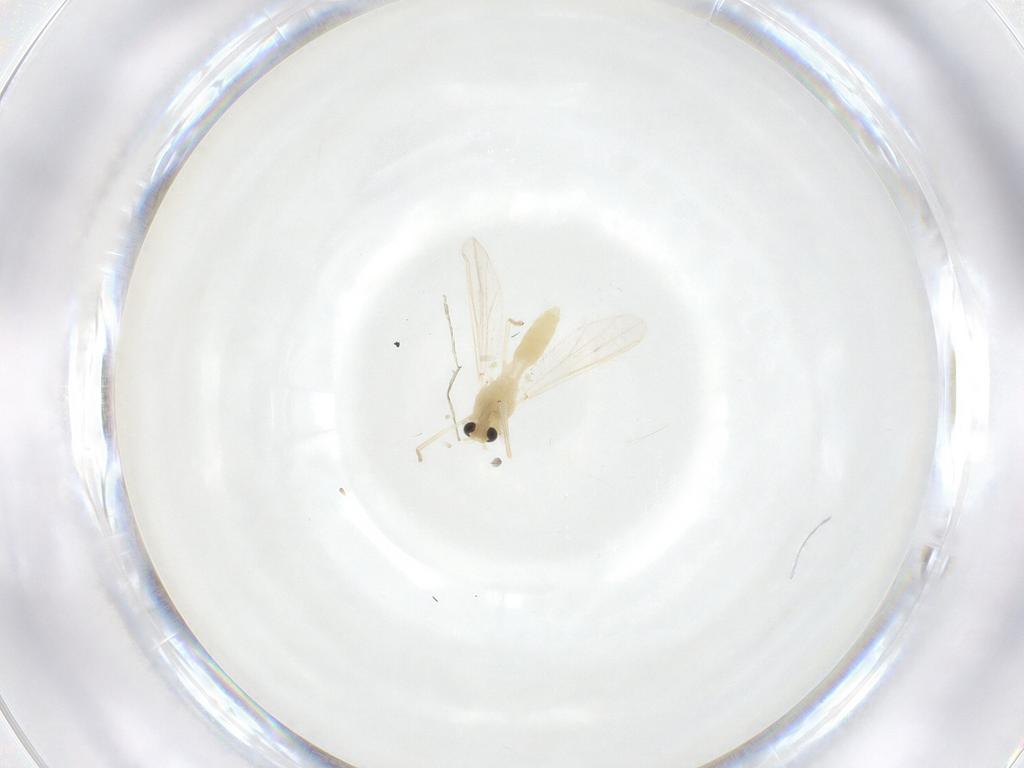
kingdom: Animalia
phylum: Arthropoda
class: Insecta
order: Diptera
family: Chironomidae
